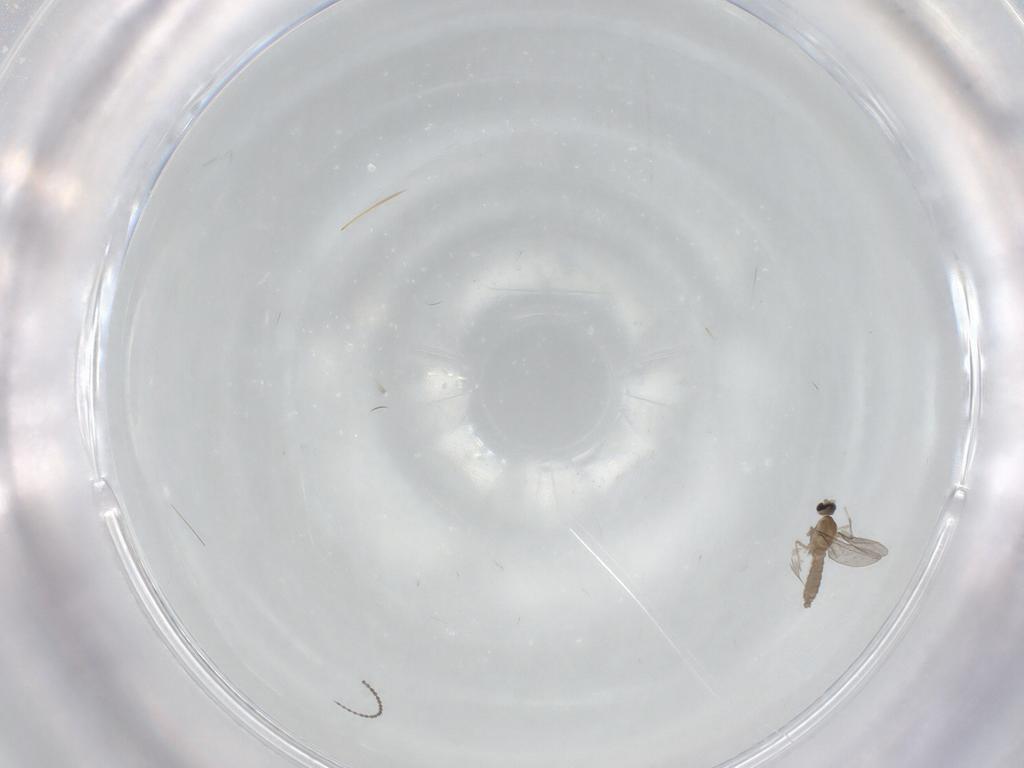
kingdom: Animalia
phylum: Arthropoda
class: Insecta
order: Diptera
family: Cecidomyiidae
